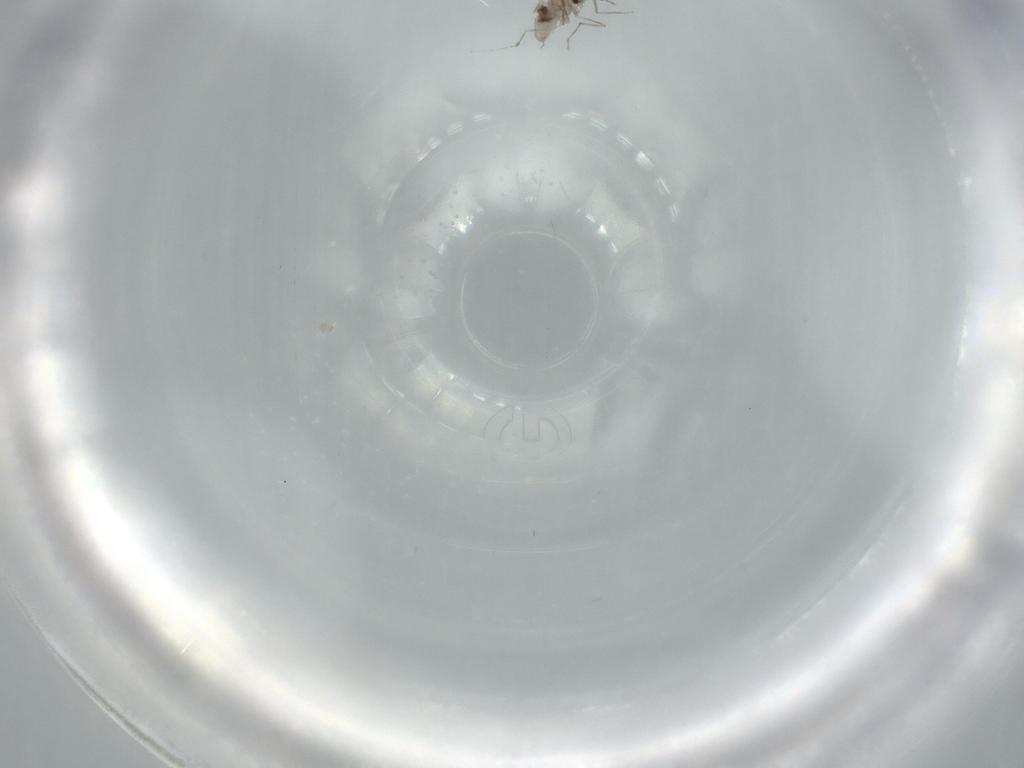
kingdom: Animalia
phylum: Arthropoda
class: Insecta
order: Diptera
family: Cecidomyiidae
